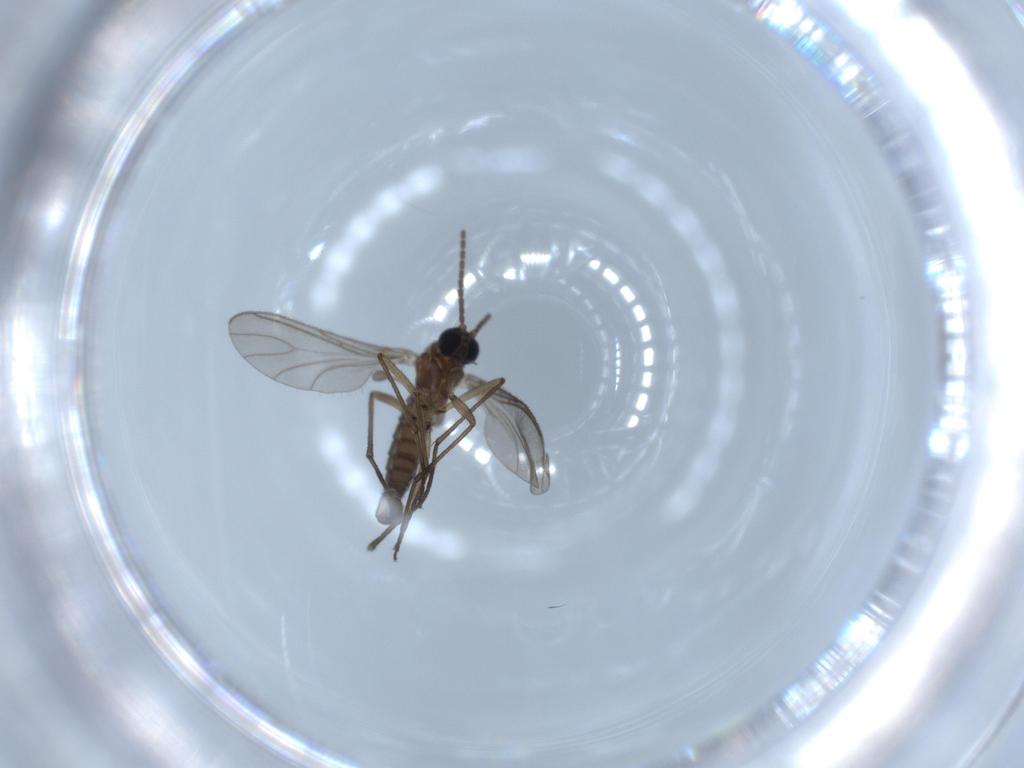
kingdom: Animalia
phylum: Arthropoda
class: Insecta
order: Diptera
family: Sciaridae
